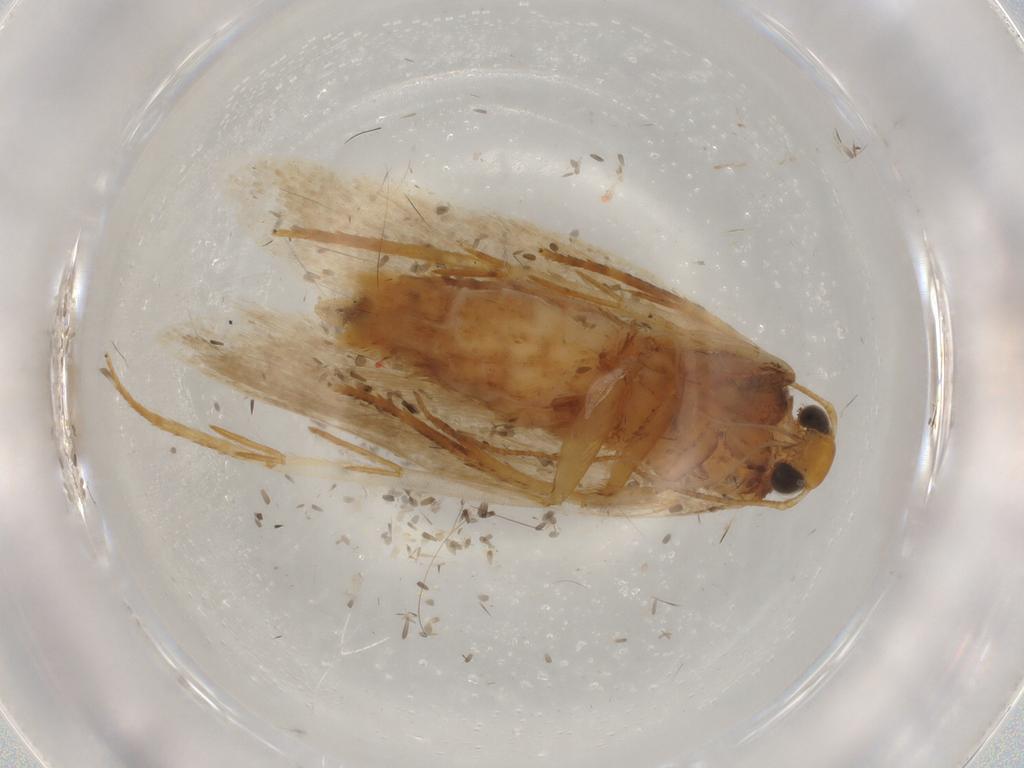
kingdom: Animalia
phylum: Arthropoda
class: Insecta
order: Lepidoptera
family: Gelechiidae
